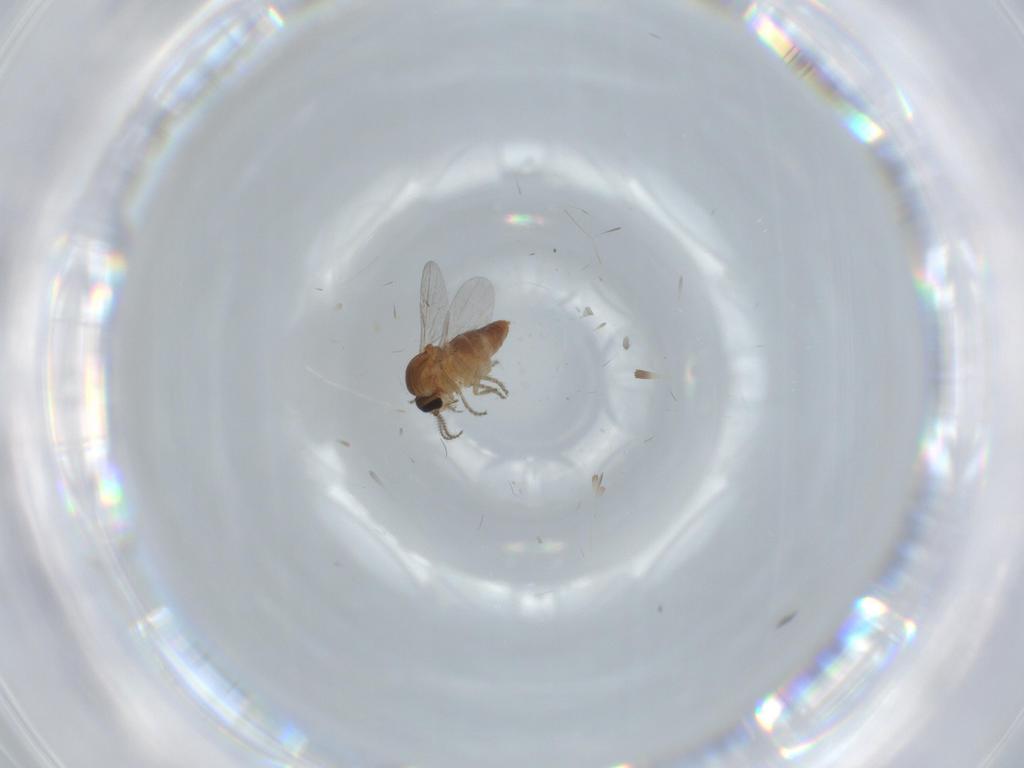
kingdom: Animalia
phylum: Arthropoda
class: Insecta
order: Diptera
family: Ceratopogonidae
